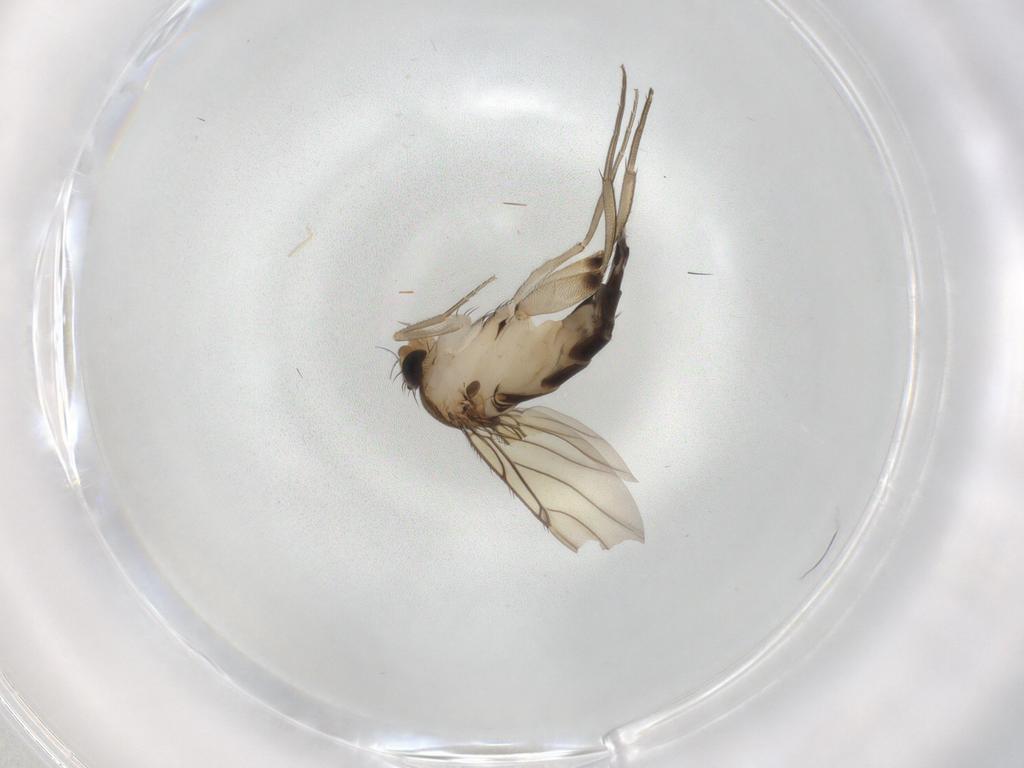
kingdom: Animalia
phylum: Arthropoda
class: Insecta
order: Diptera
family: Phoridae
